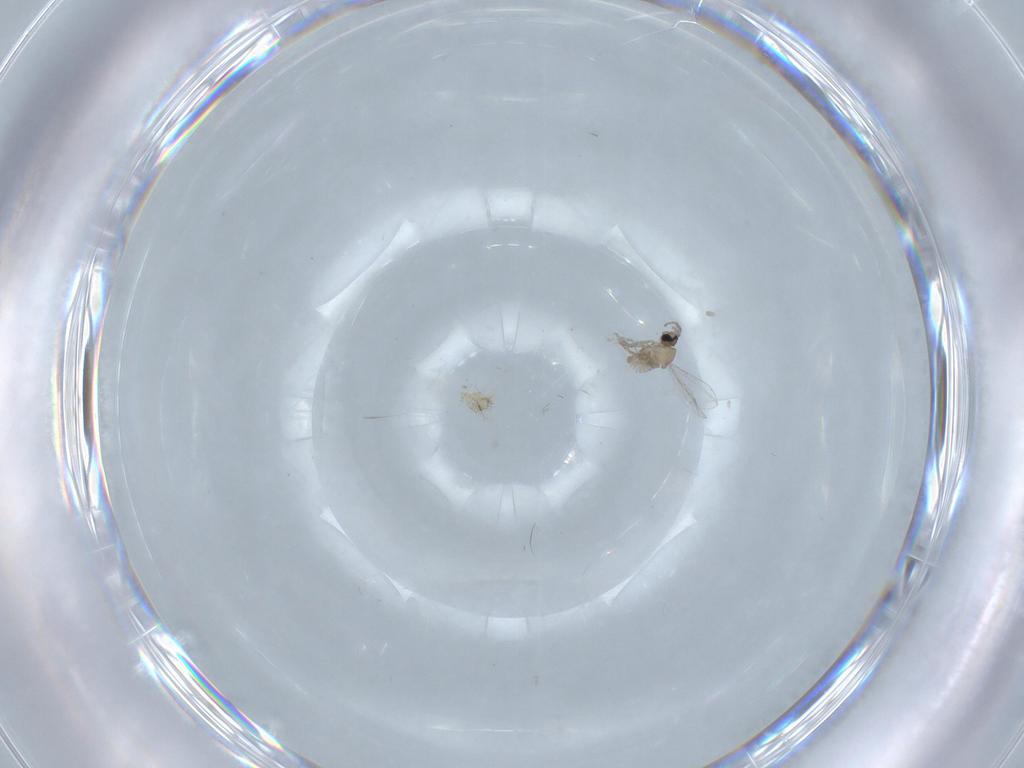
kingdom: Animalia
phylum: Arthropoda
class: Insecta
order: Diptera
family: Cecidomyiidae
